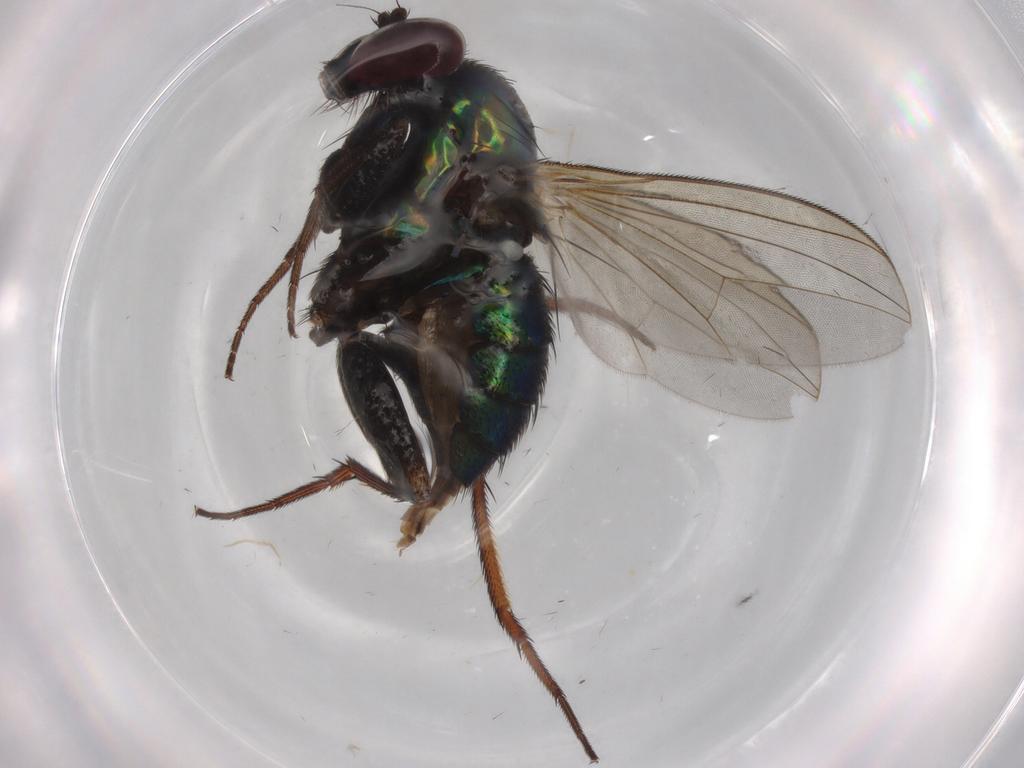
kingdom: Animalia
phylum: Arthropoda
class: Insecta
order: Diptera
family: Dolichopodidae
